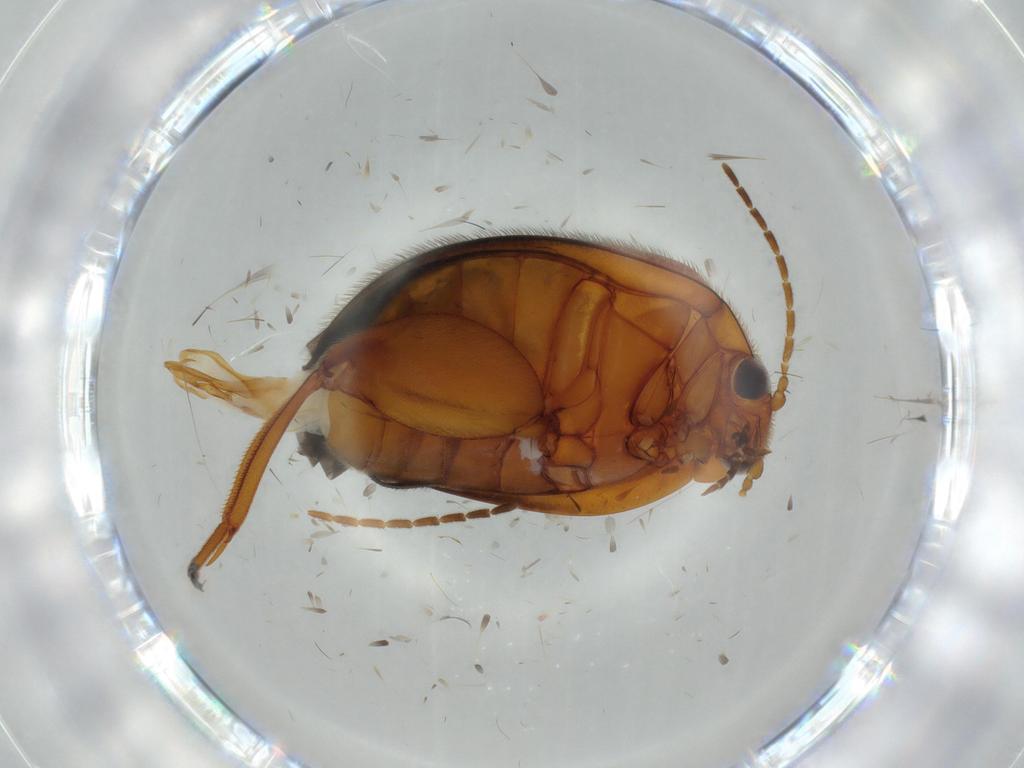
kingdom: Animalia
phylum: Arthropoda
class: Insecta
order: Coleoptera
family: Scirtidae
